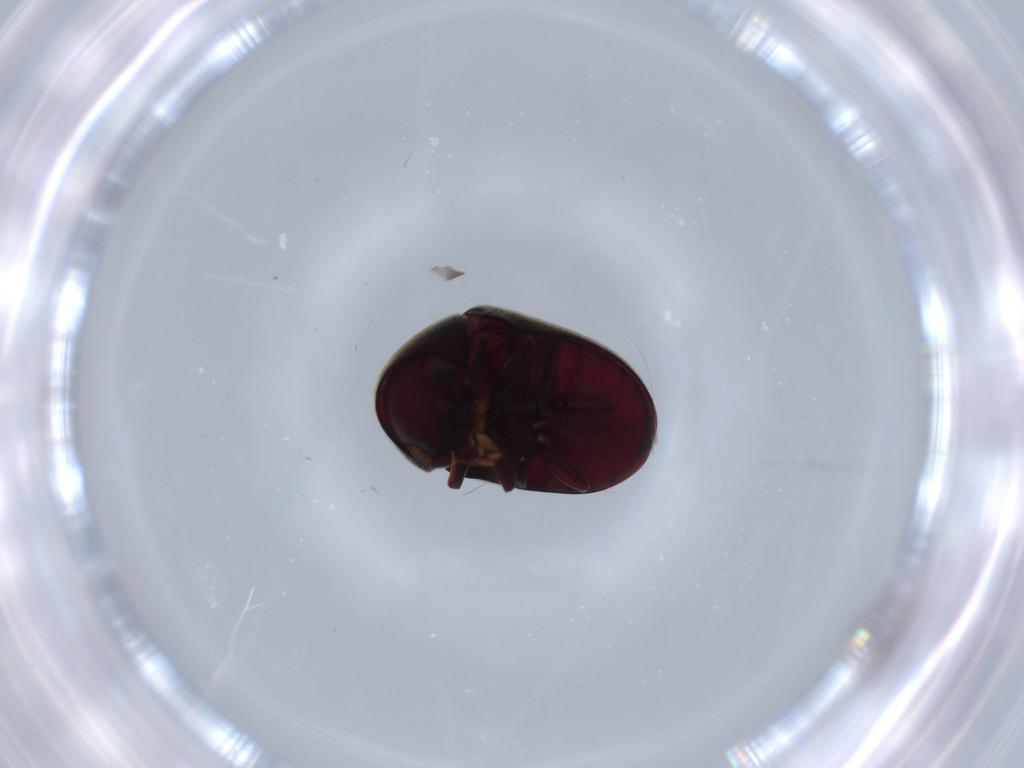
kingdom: Animalia
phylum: Arthropoda
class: Insecta
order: Coleoptera
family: Ptinidae
